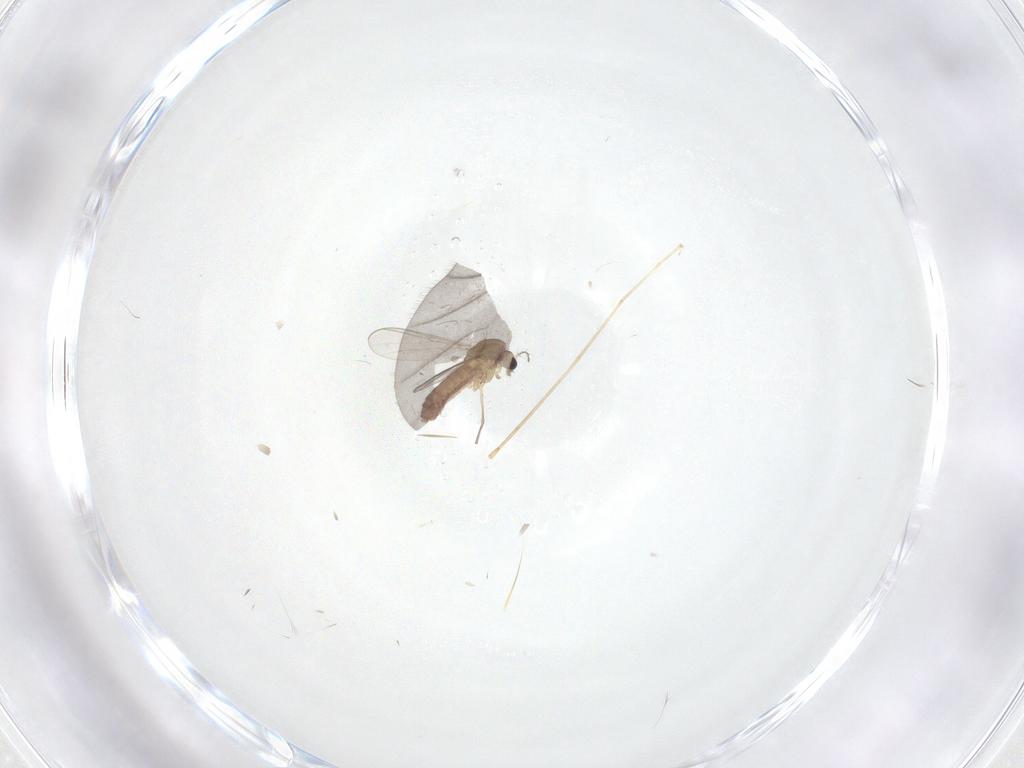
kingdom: Animalia
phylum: Arthropoda
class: Insecta
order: Diptera
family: Chironomidae
